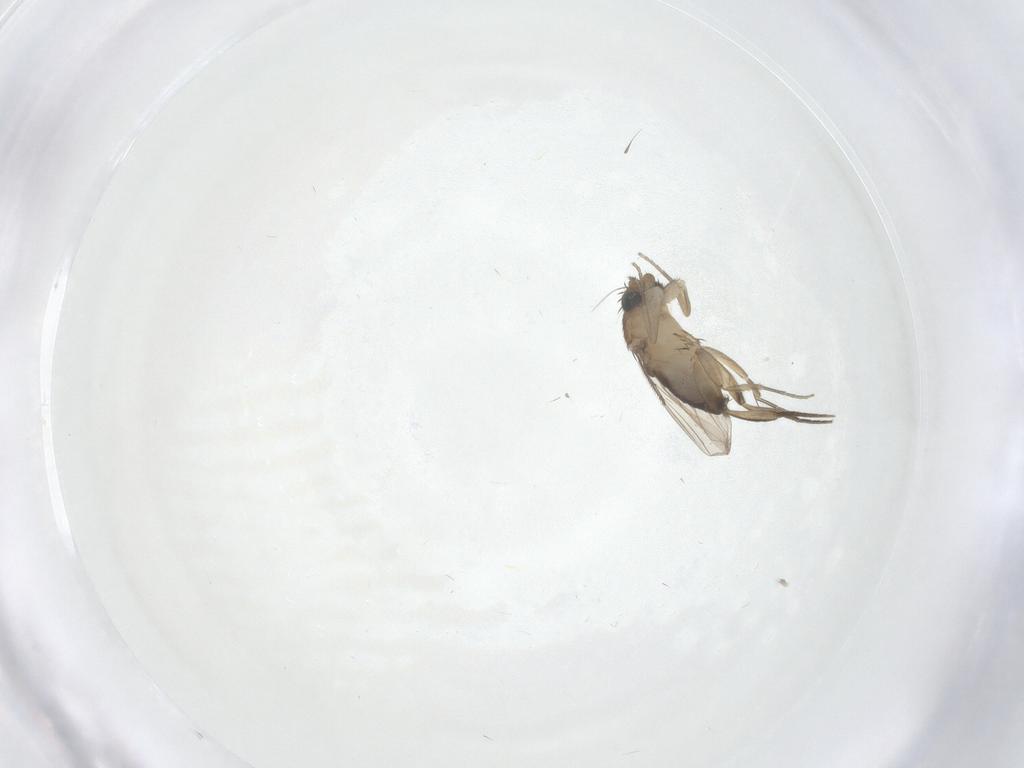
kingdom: Animalia
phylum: Arthropoda
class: Insecta
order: Diptera
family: Phoridae
